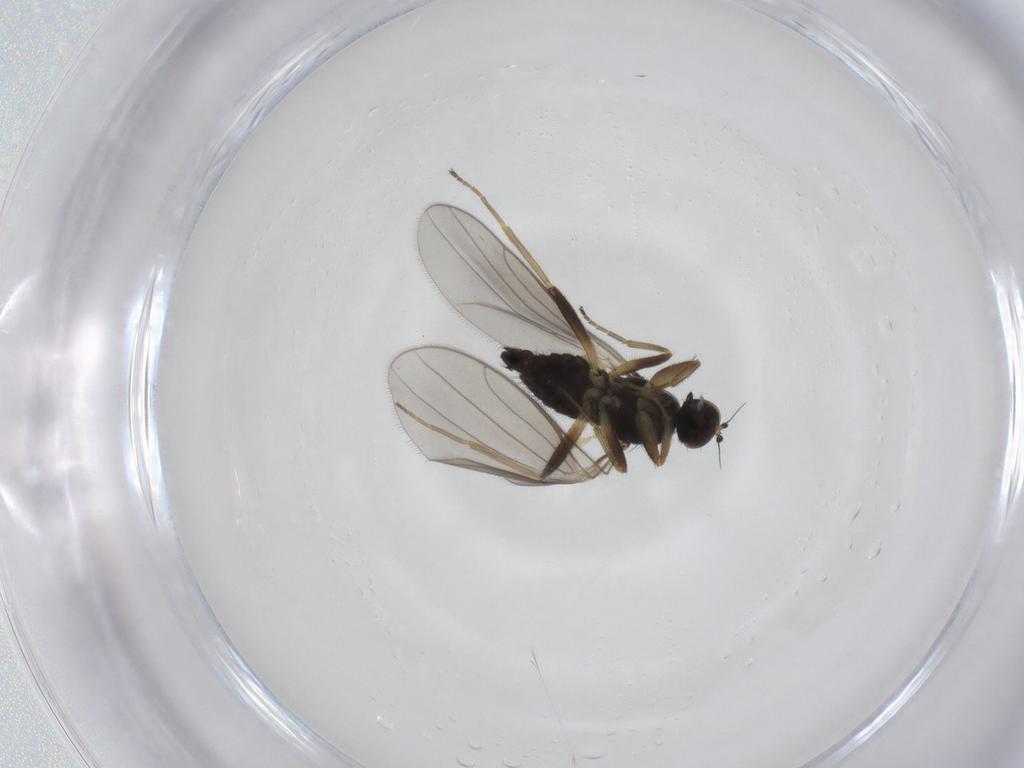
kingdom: Animalia
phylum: Arthropoda
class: Insecta
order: Diptera
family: Hybotidae
